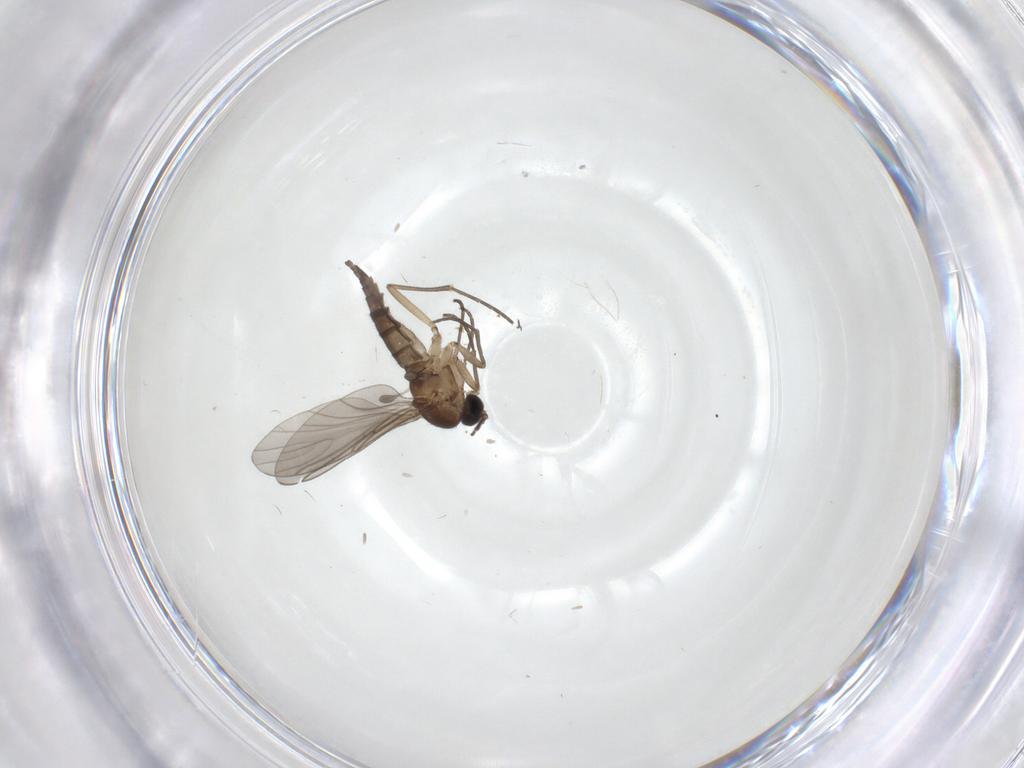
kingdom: Animalia
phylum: Arthropoda
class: Insecta
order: Diptera
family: Sciaridae
